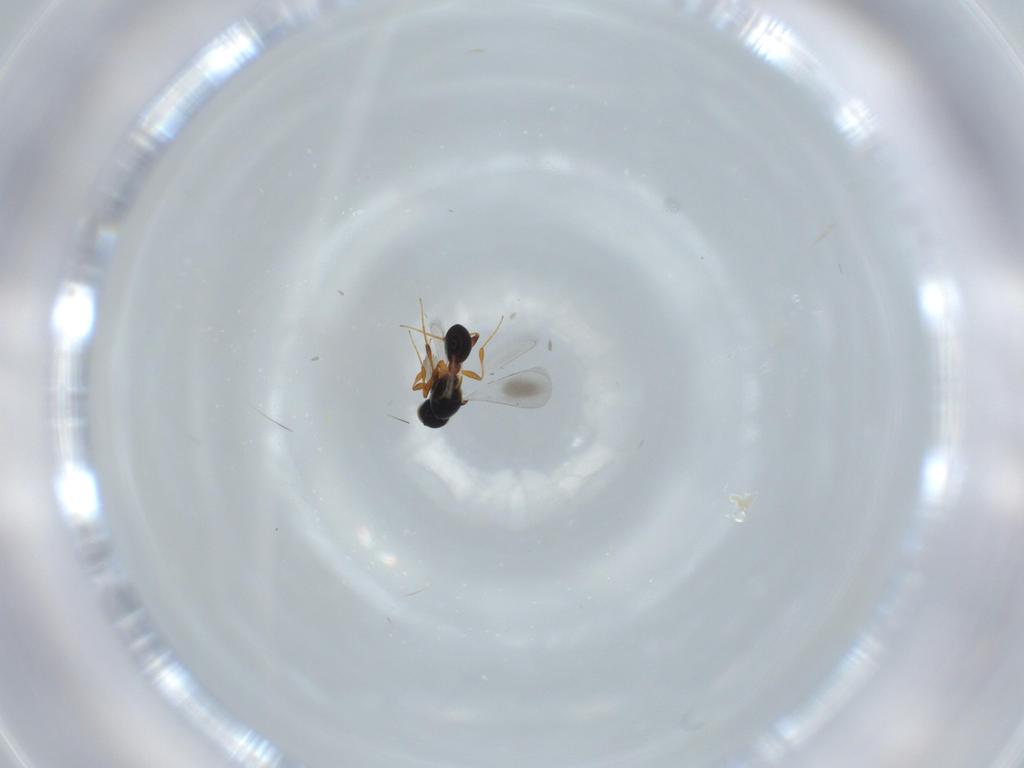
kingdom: Animalia
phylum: Arthropoda
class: Insecta
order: Hymenoptera
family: Platygastridae
